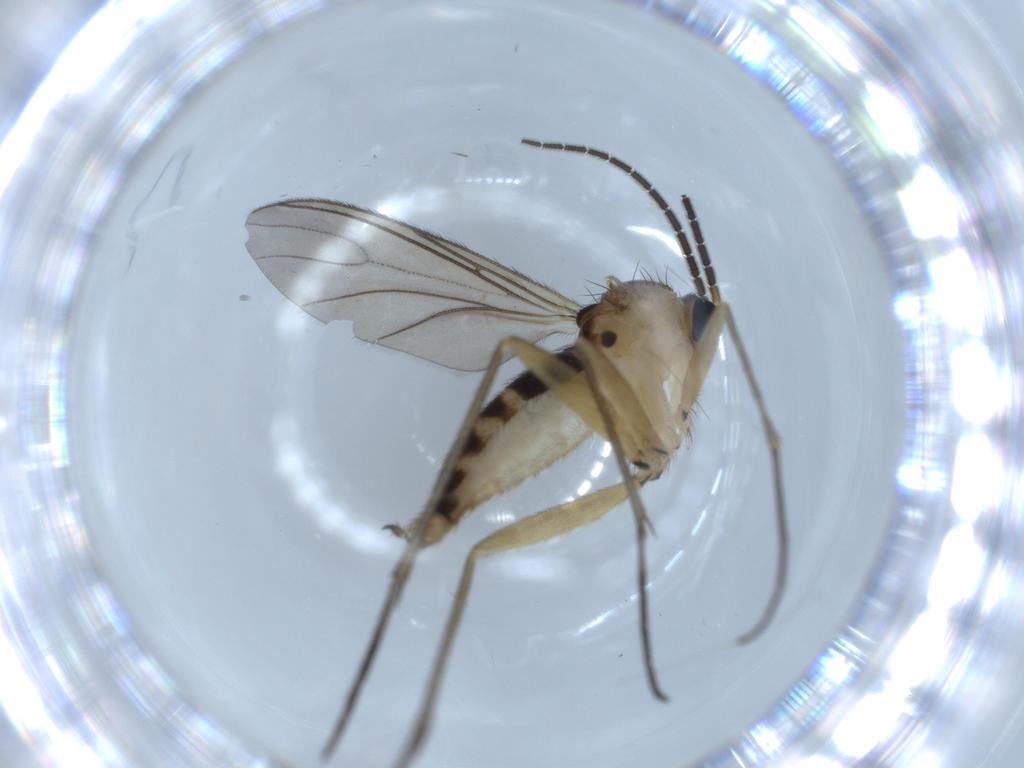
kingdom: Animalia
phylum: Arthropoda
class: Insecta
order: Diptera
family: Sciaridae
